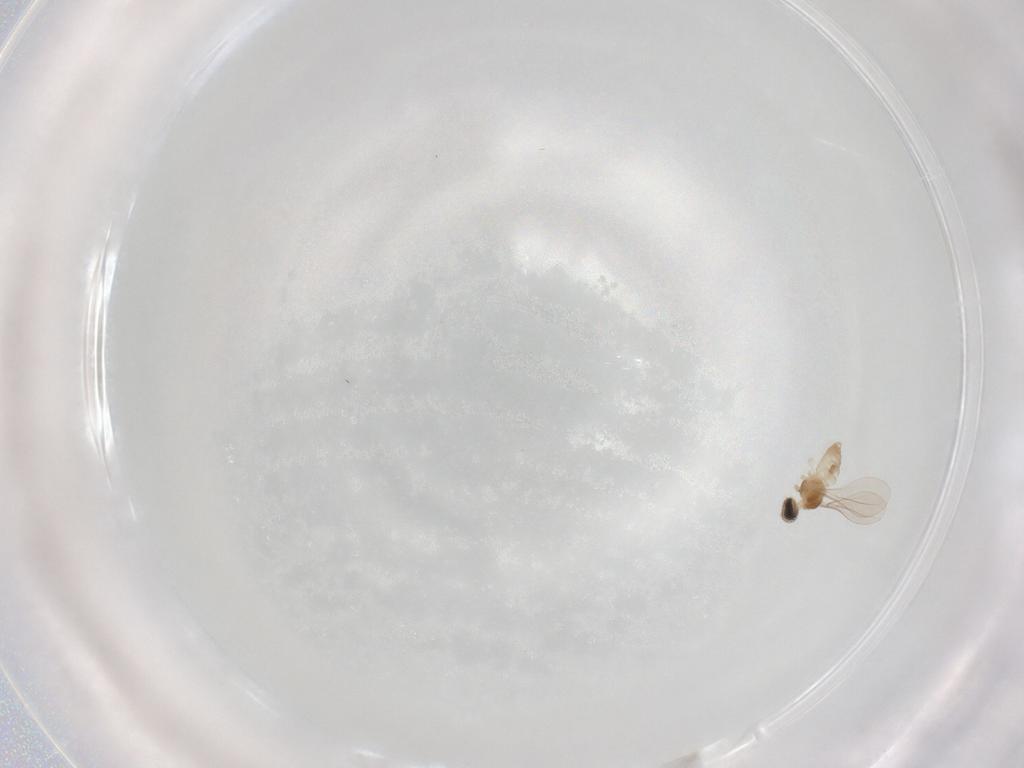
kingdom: Animalia
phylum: Arthropoda
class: Insecta
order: Diptera
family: Cecidomyiidae
